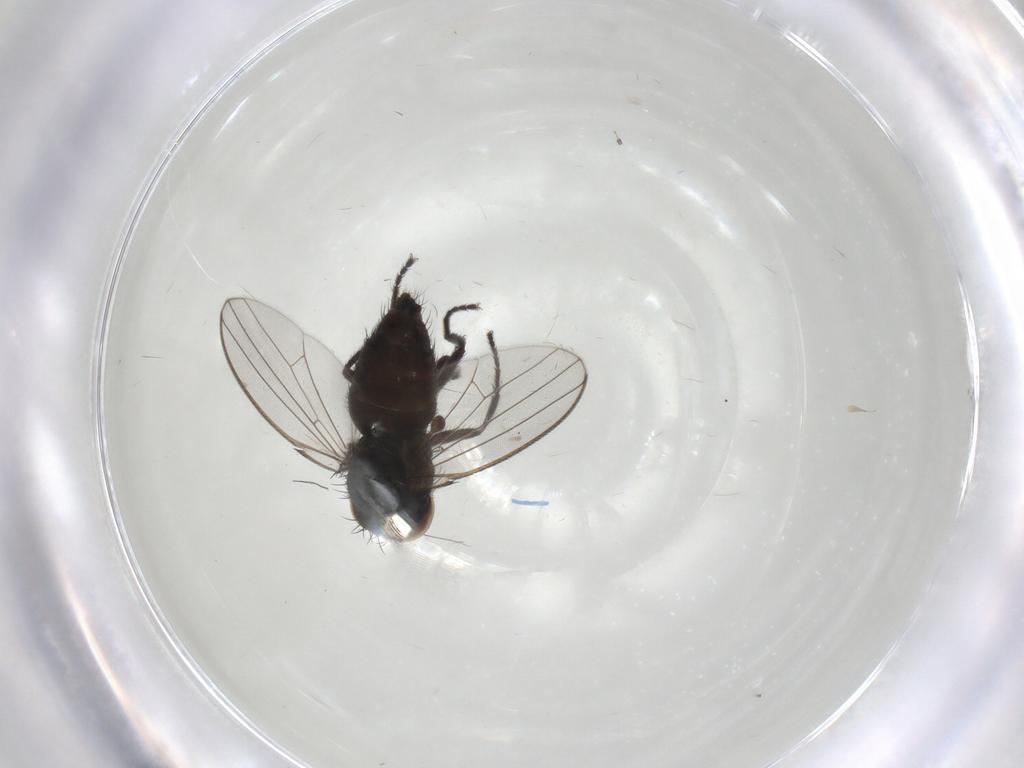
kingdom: Animalia
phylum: Arthropoda
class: Insecta
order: Diptera
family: Milichiidae
